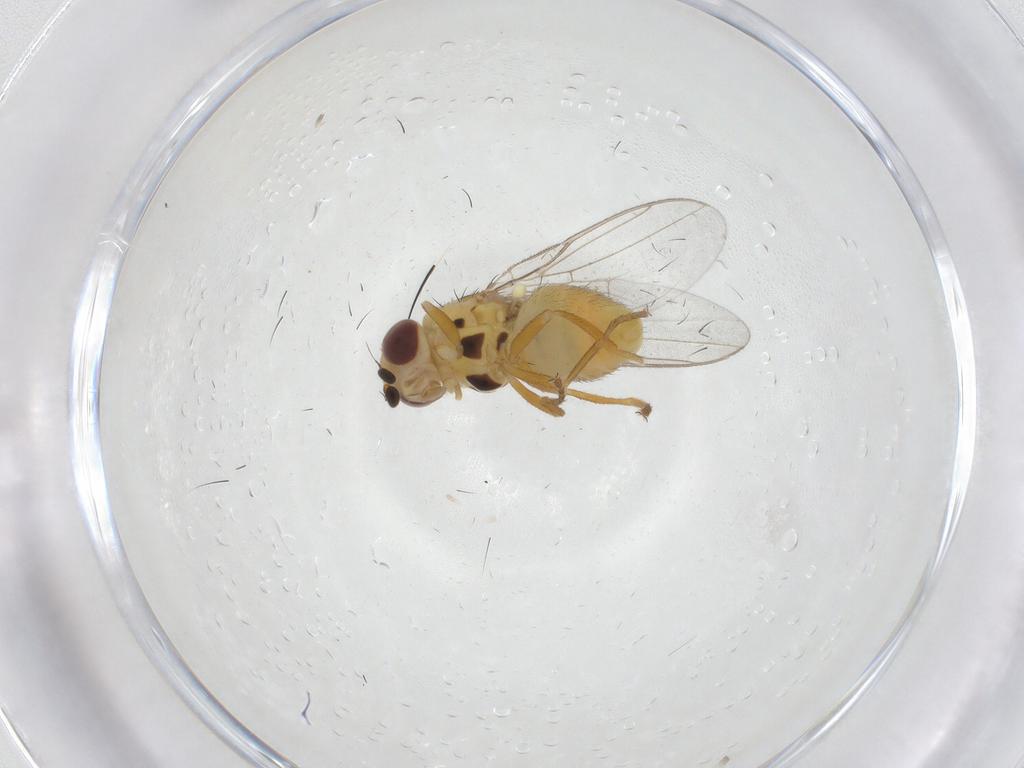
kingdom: Animalia
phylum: Arthropoda
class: Insecta
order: Diptera
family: Chloropidae
